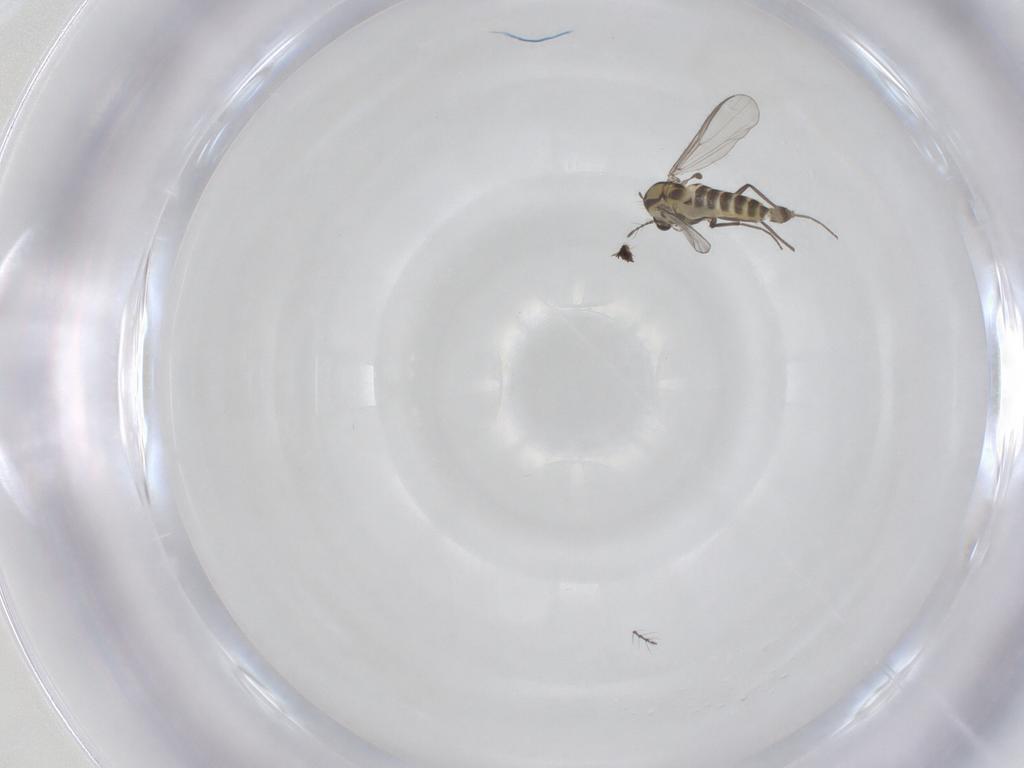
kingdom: Animalia
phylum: Arthropoda
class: Insecta
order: Diptera
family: Chironomidae
